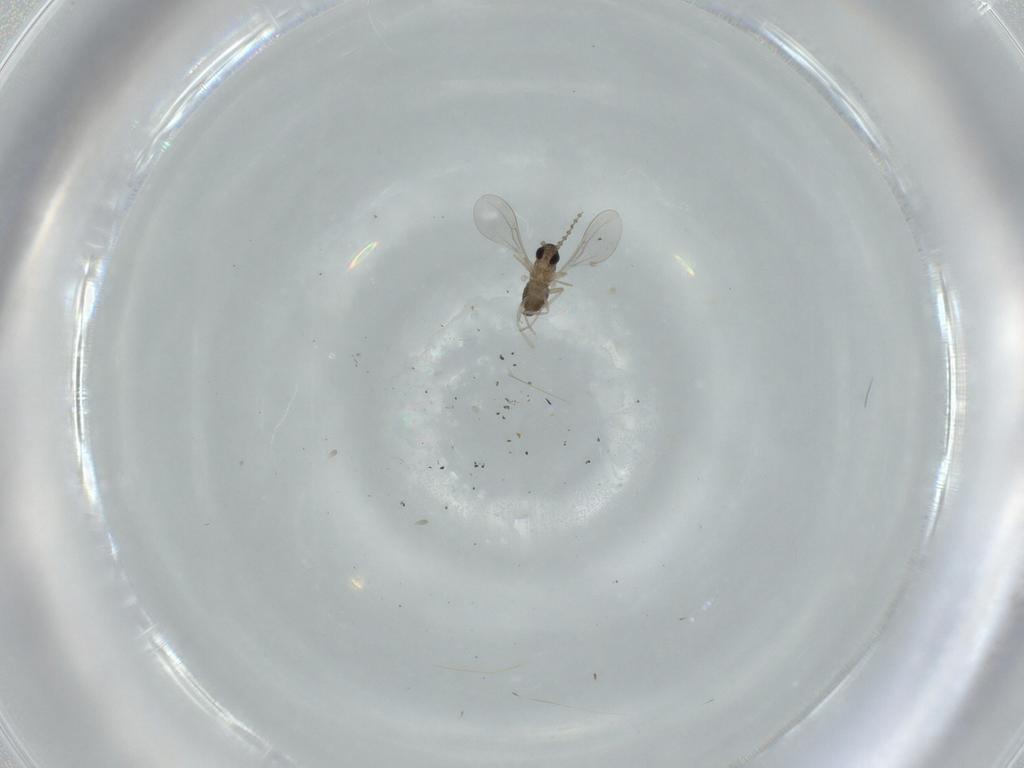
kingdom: Animalia
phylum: Arthropoda
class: Insecta
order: Diptera
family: Cecidomyiidae
